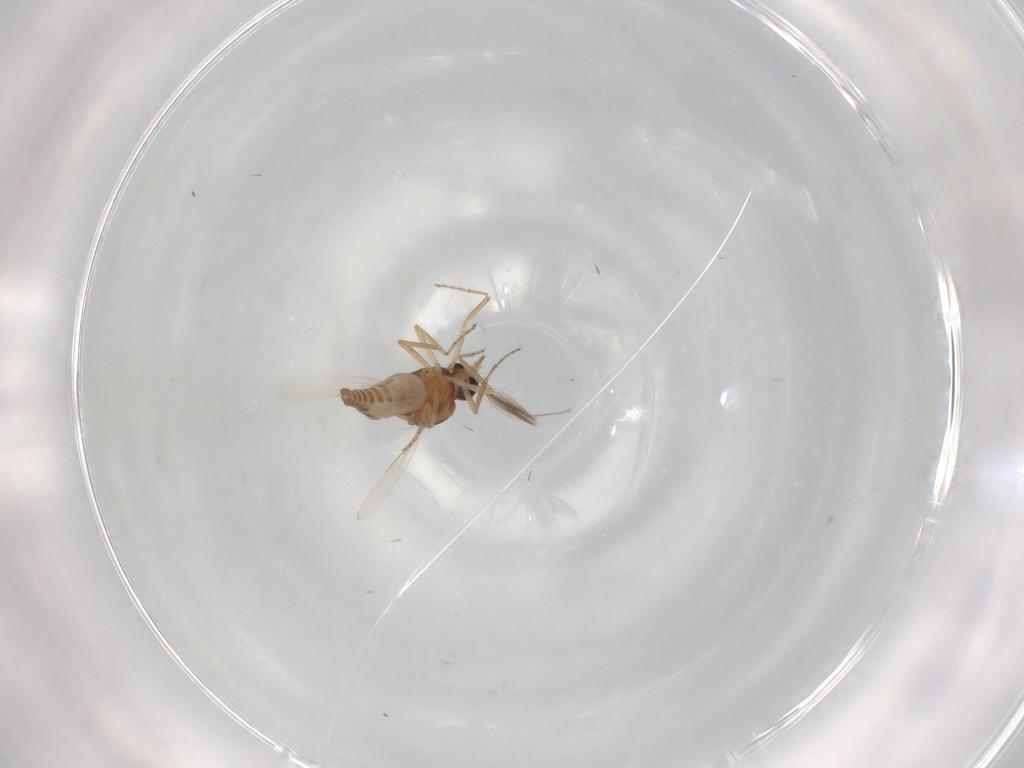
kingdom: Animalia
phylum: Arthropoda
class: Insecta
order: Diptera
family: Ceratopogonidae
